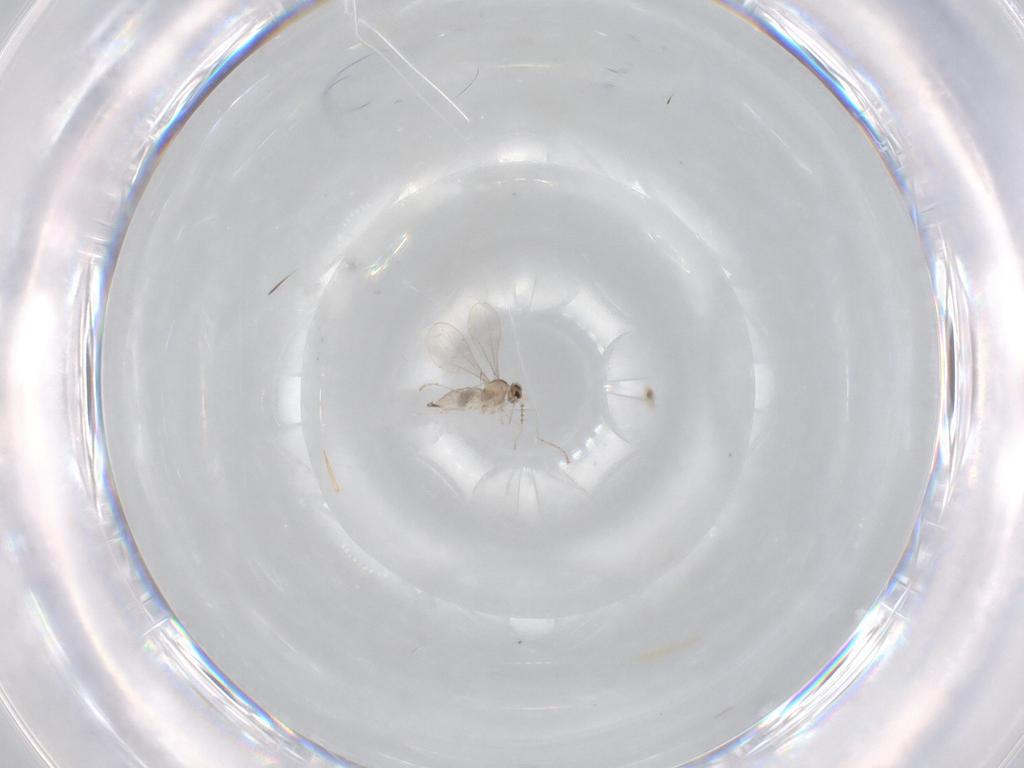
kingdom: Animalia
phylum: Arthropoda
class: Insecta
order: Diptera
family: Cecidomyiidae
